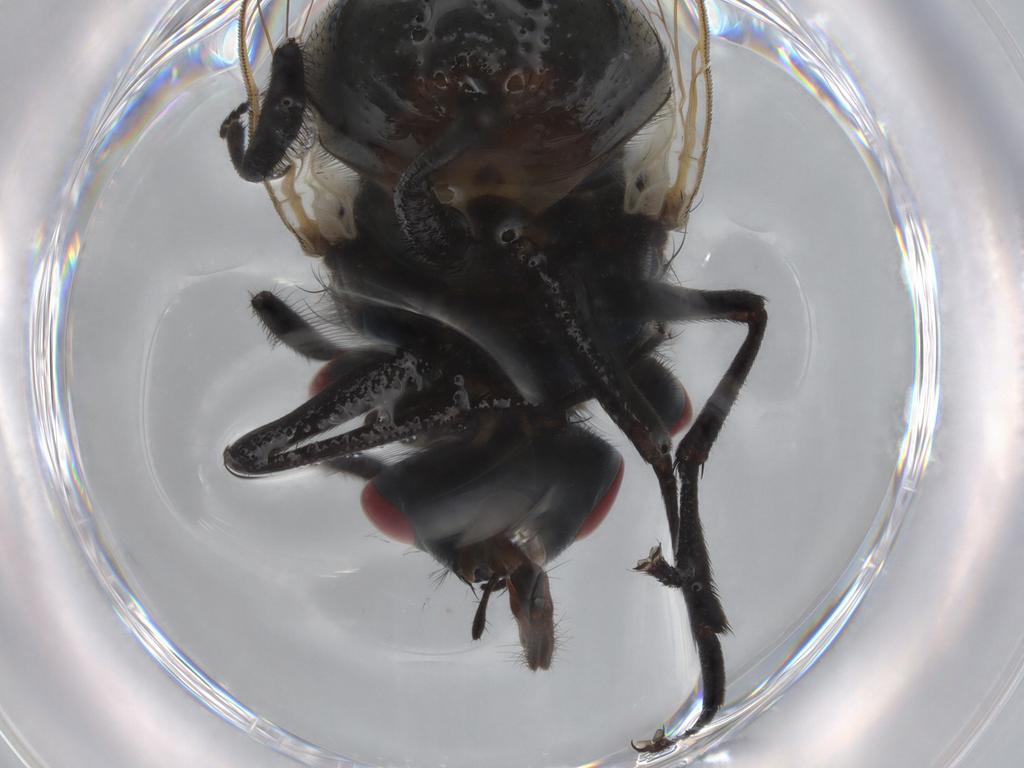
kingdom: Animalia
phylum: Arthropoda
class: Insecta
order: Diptera
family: Muscidae
